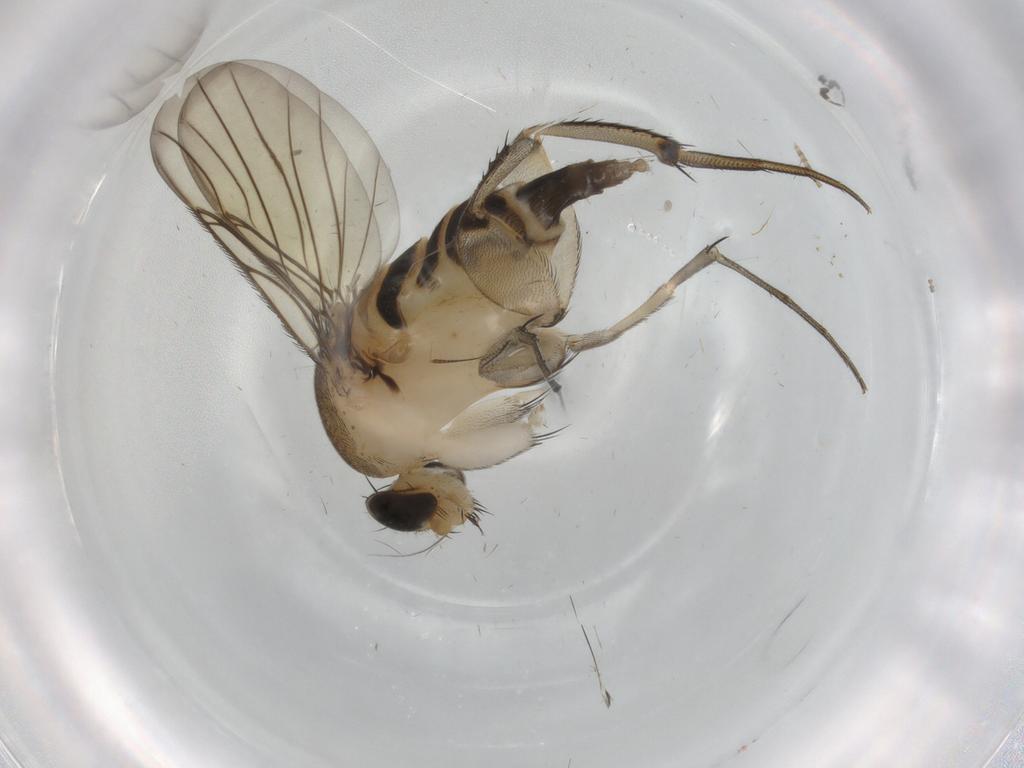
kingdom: Animalia
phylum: Arthropoda
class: Insecta
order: Diptera
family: Phoridae
